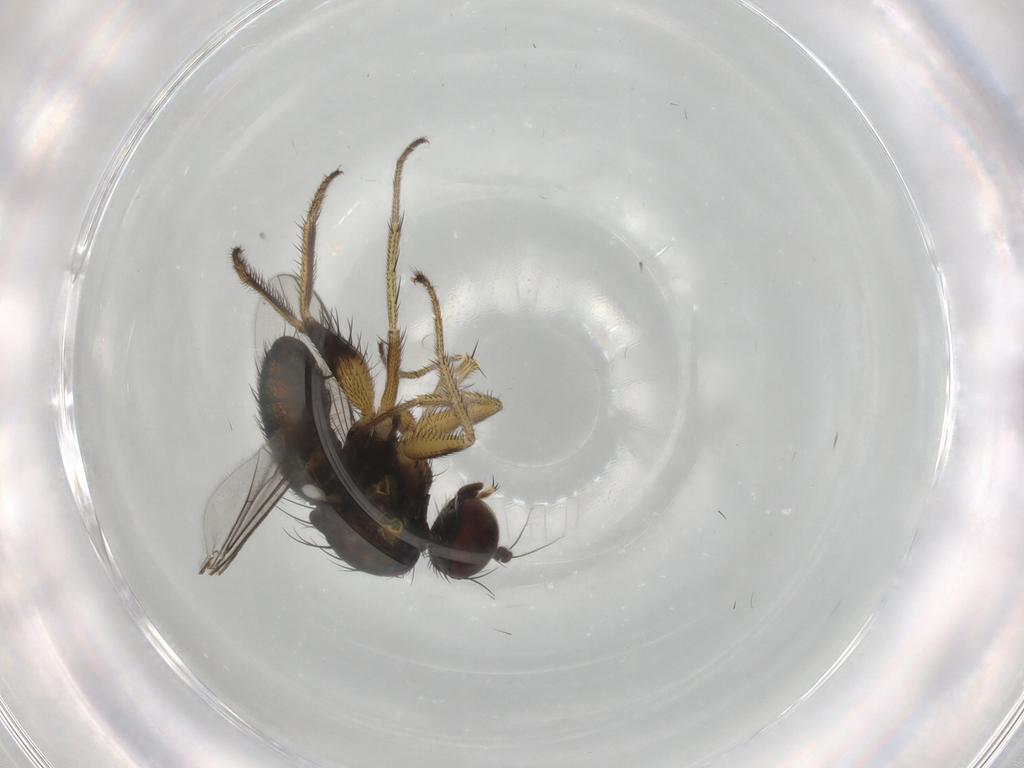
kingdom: Animalia
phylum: Arthropoda
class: Insecta
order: Diptera
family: Dolichopodidae
